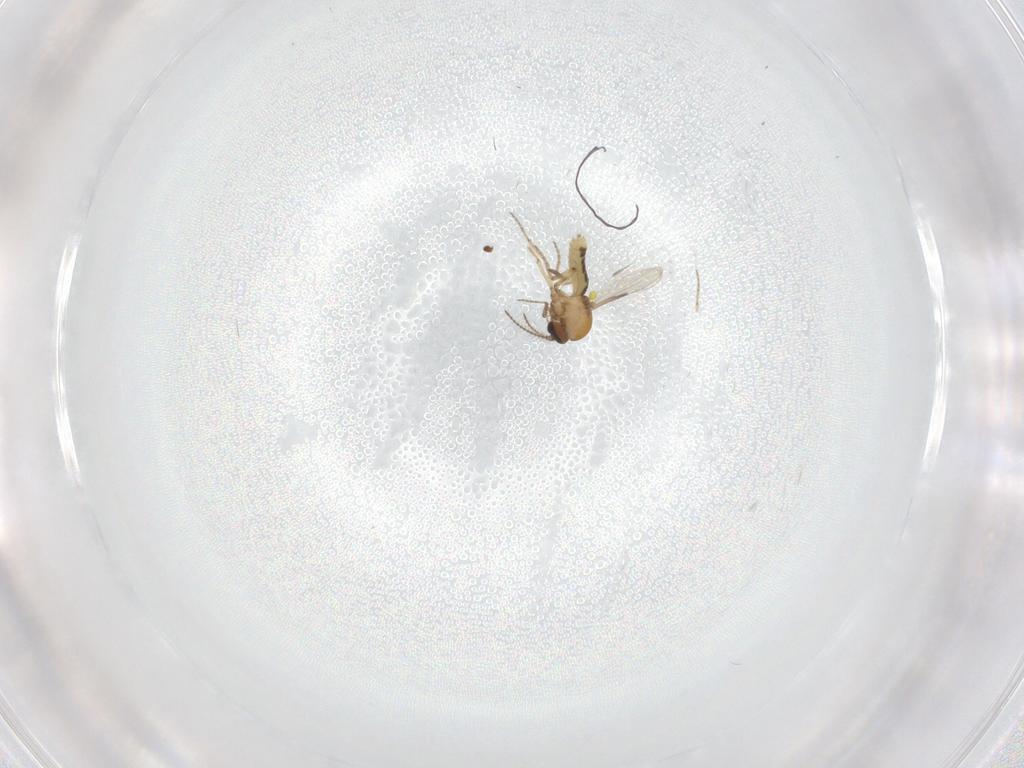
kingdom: Animalia
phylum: Arthropoda
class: Insecta
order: Diptera
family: Ceratopogonidae
